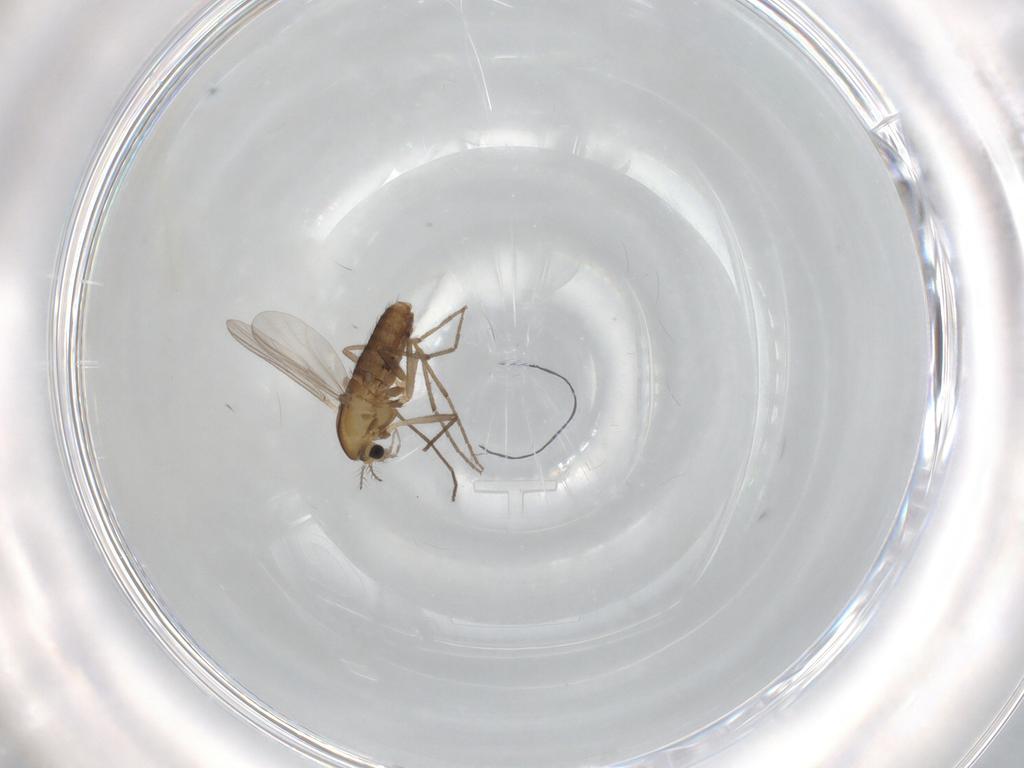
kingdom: Animalia
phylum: Arthropoda
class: Insecta
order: Diptera
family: Chironomidae
